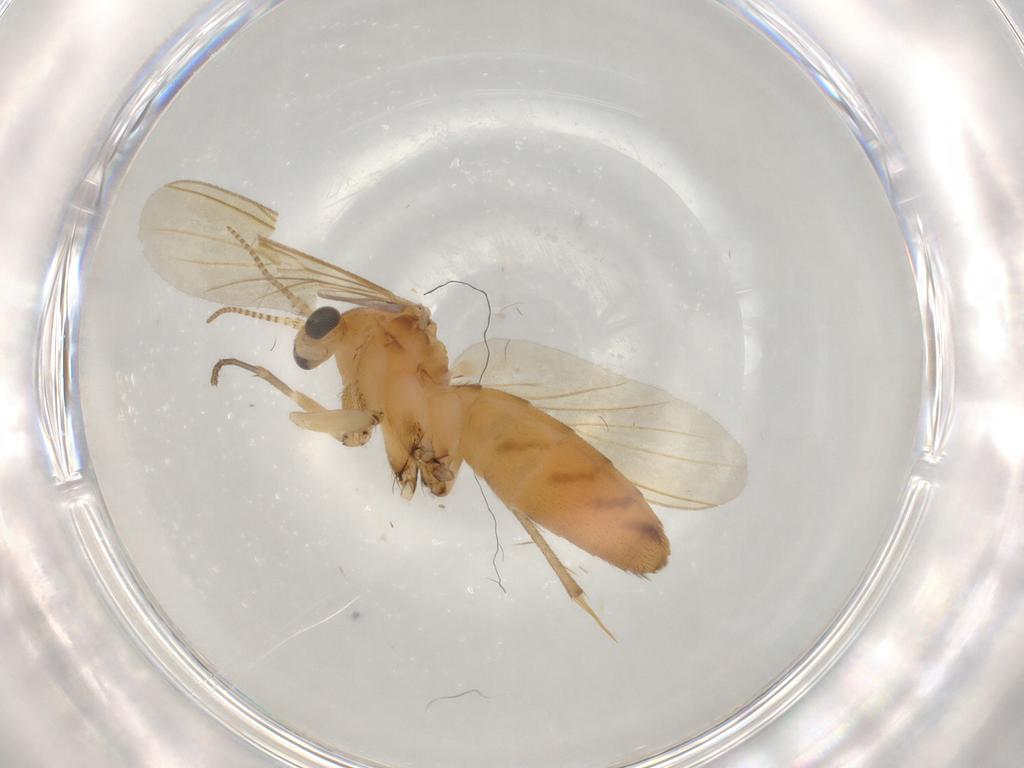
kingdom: Animalia
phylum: Arthropoda
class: Insecta
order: Diptera
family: Mycetophilidae
